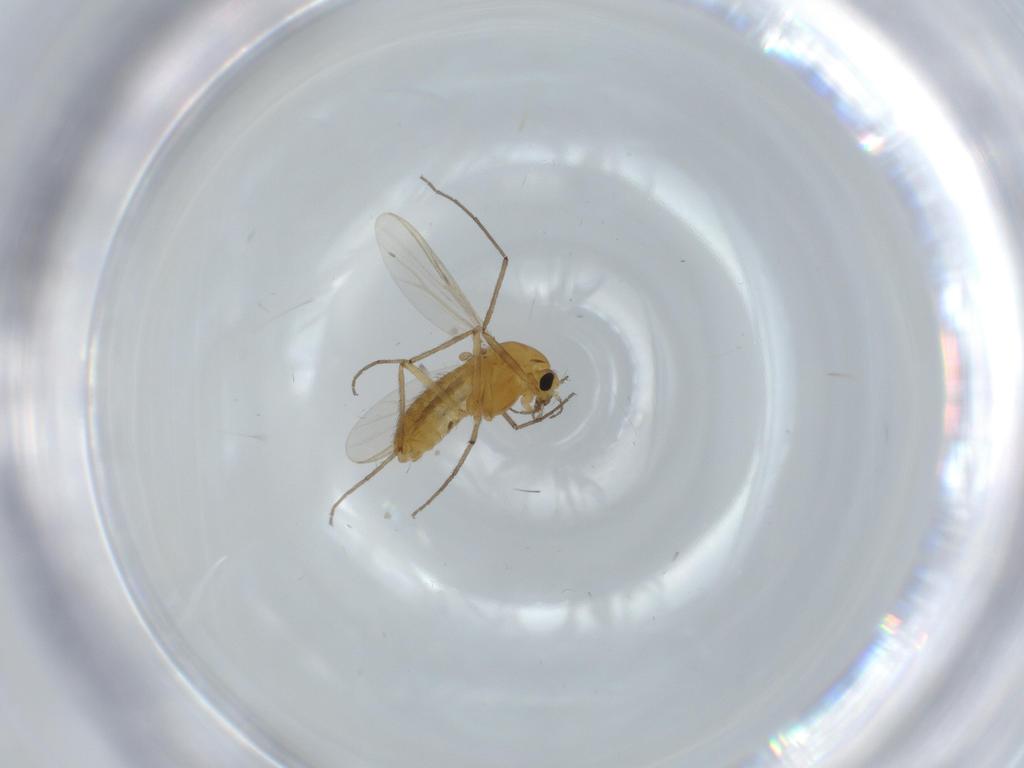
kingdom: Animalia
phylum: Arthropoda
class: Insecta
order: Diptera
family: Chironomidae
